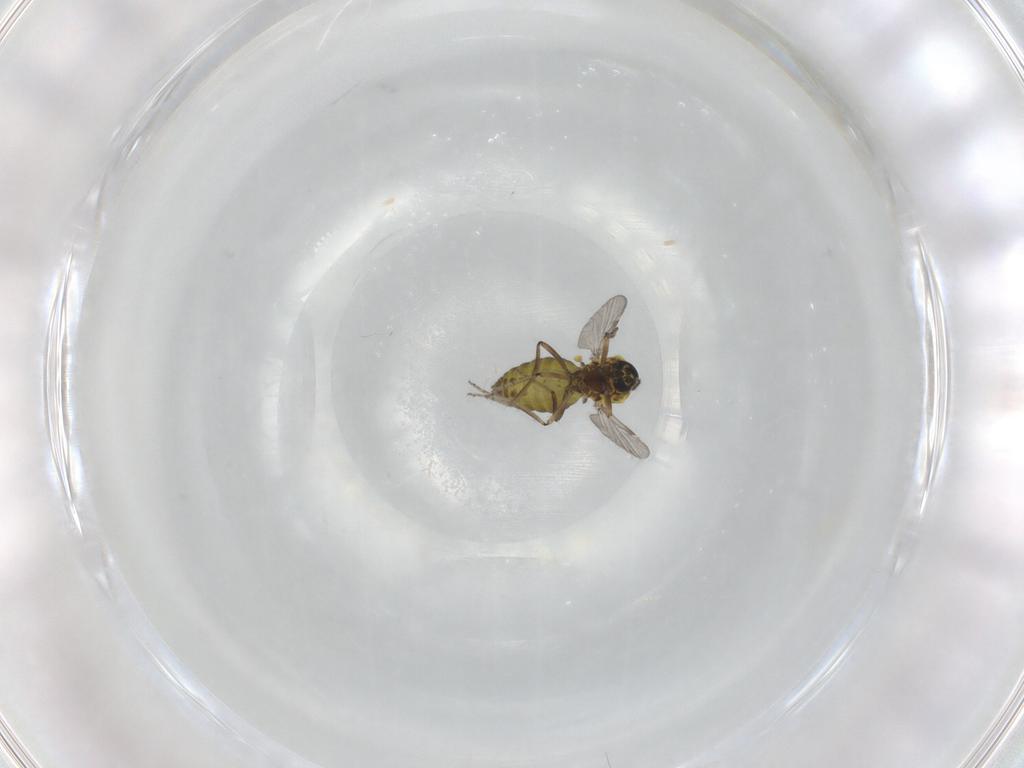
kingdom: Animalia
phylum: Arthropoda
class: Insecta
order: Diptera
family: Ceratopogonidae
